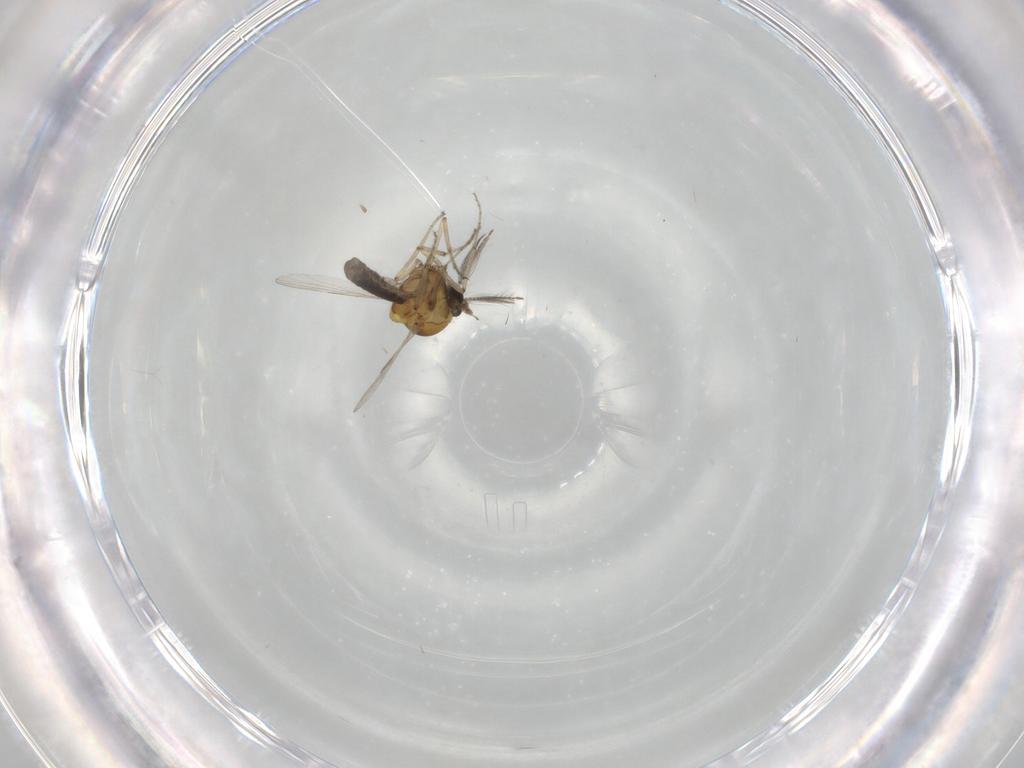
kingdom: Animalia
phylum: Arthropoda
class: Insecta
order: Diptera
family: Ceratopogonidae
